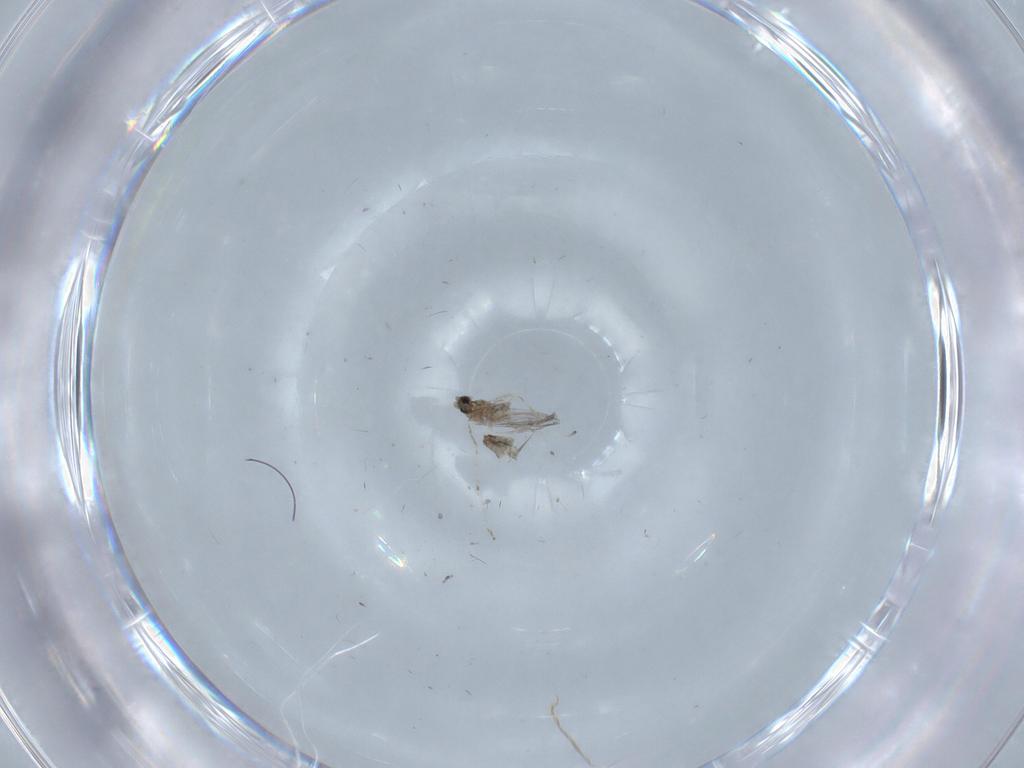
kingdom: Animalia
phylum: Arthropoda
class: Insecta
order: Diptera
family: Cecidomyiidae
